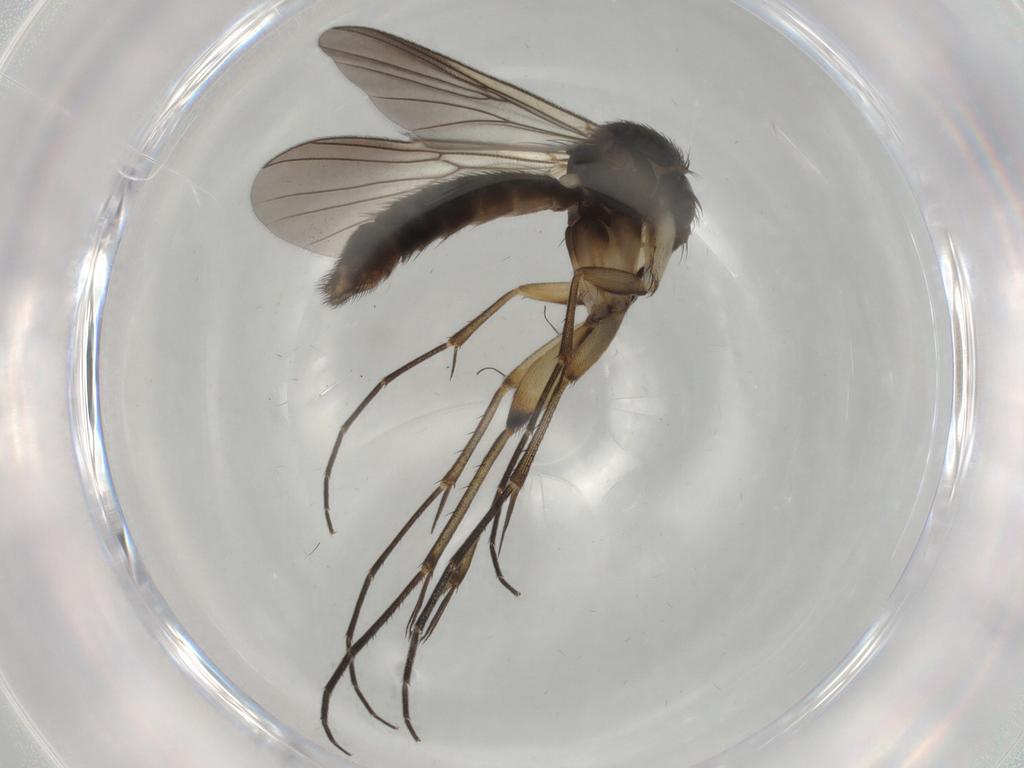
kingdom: Animalia
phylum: Arthropoda
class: Insecta
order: Diptera
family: Mycetophilidae
